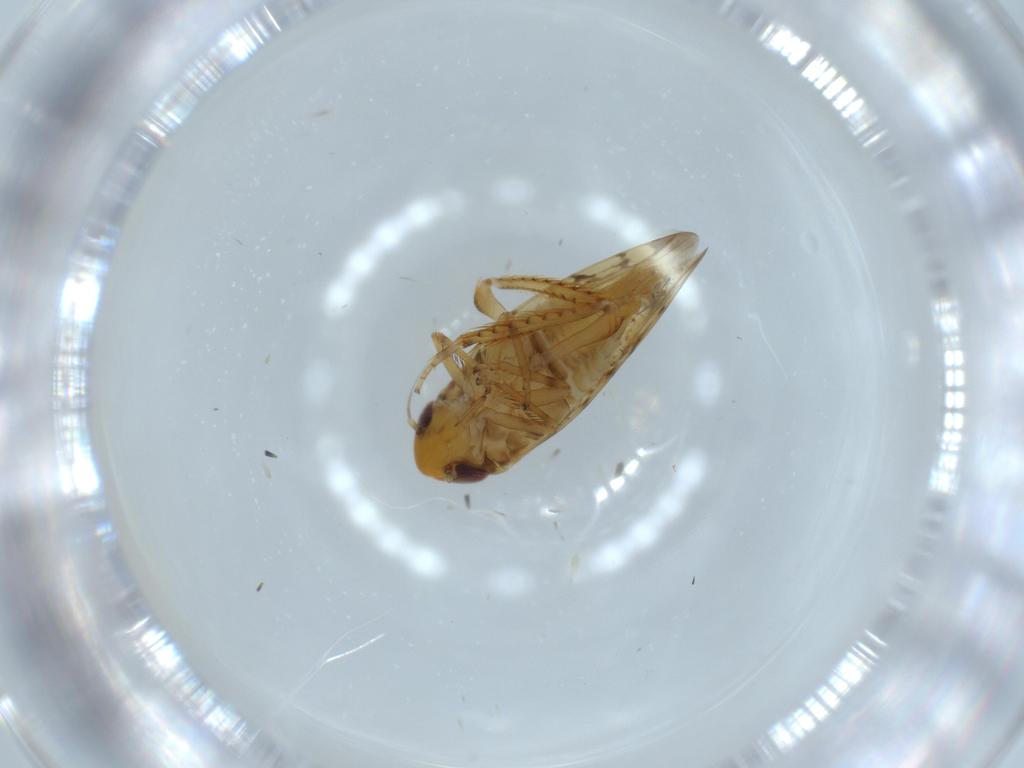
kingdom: Animalia
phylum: Arthropoda
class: Insecta
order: Hemiptera
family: Cicadellidae
